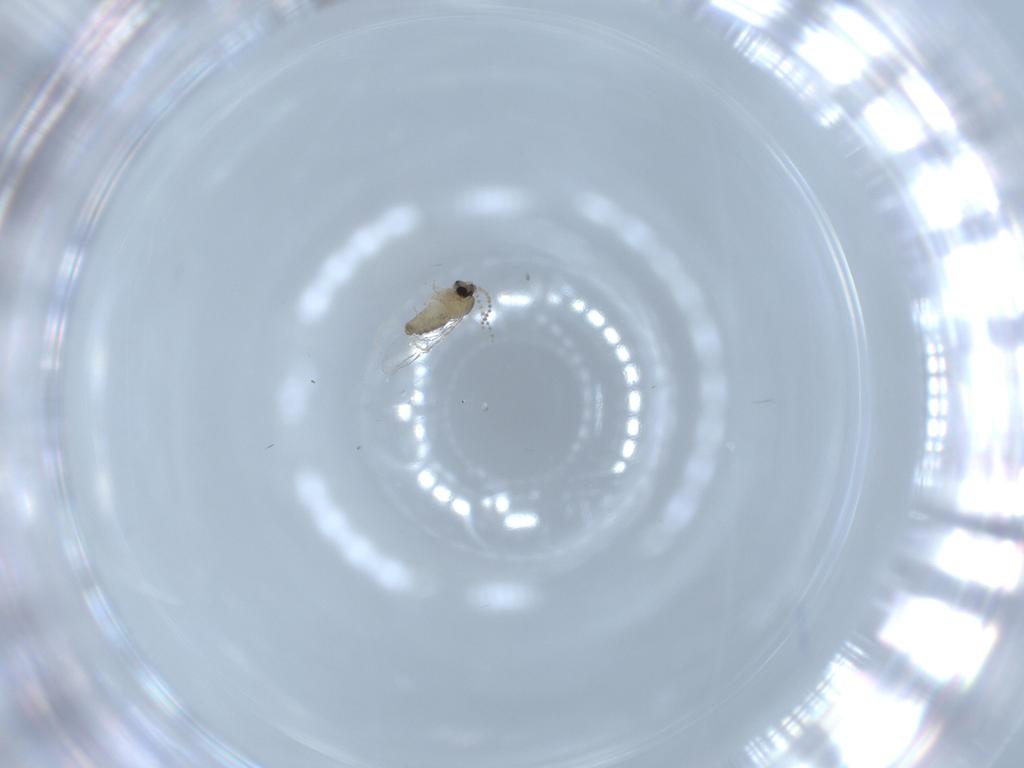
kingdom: Animalia
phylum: Arthropoda
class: Insecta
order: Diptera
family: Cecidomyiidae
